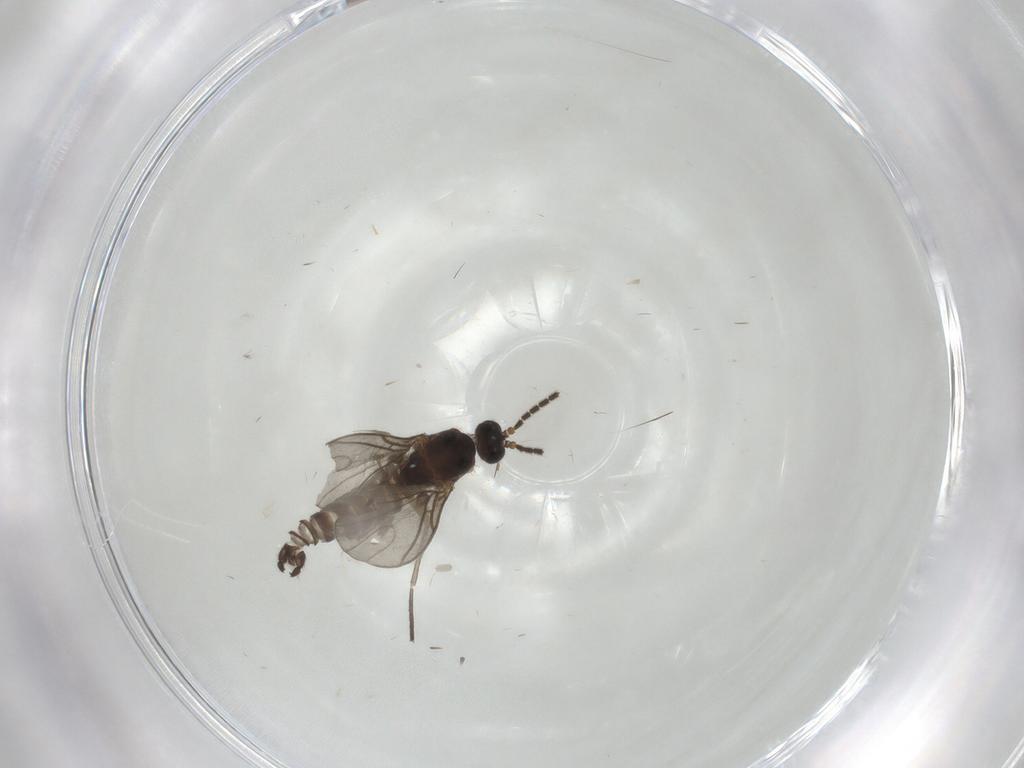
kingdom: Animalia
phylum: Arthropoda
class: Insecta
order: Diptera
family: Sciaridae
